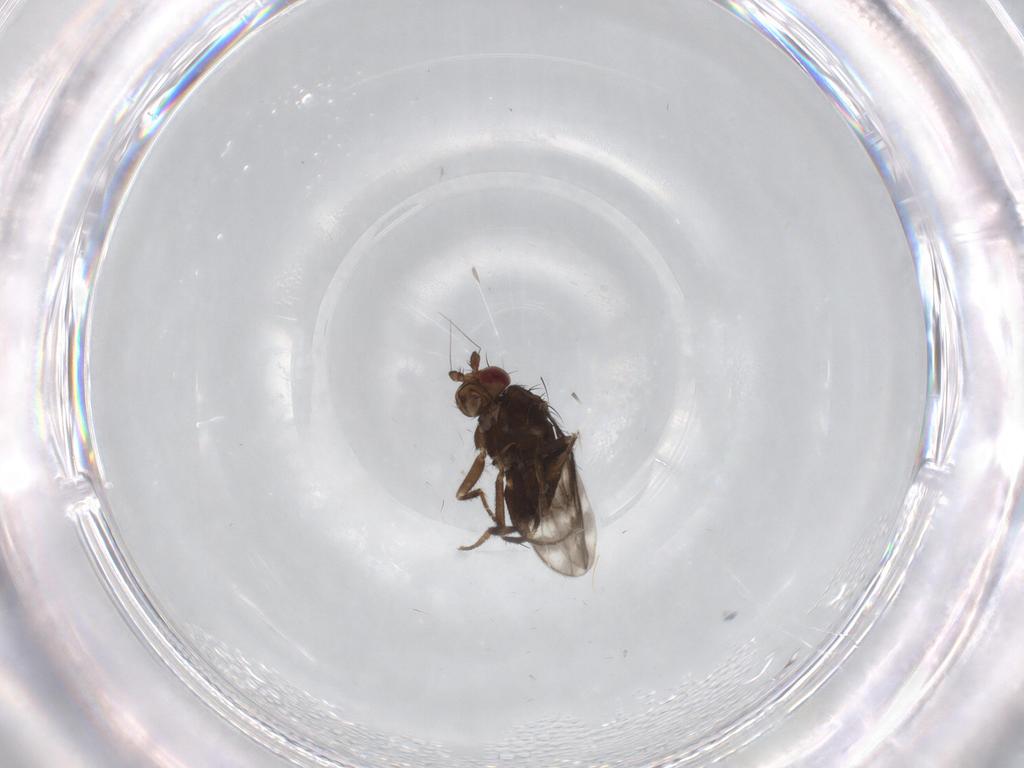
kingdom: Animalia
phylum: Arthropoda
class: Insecta
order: Diptera
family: Sphaeroceridae
